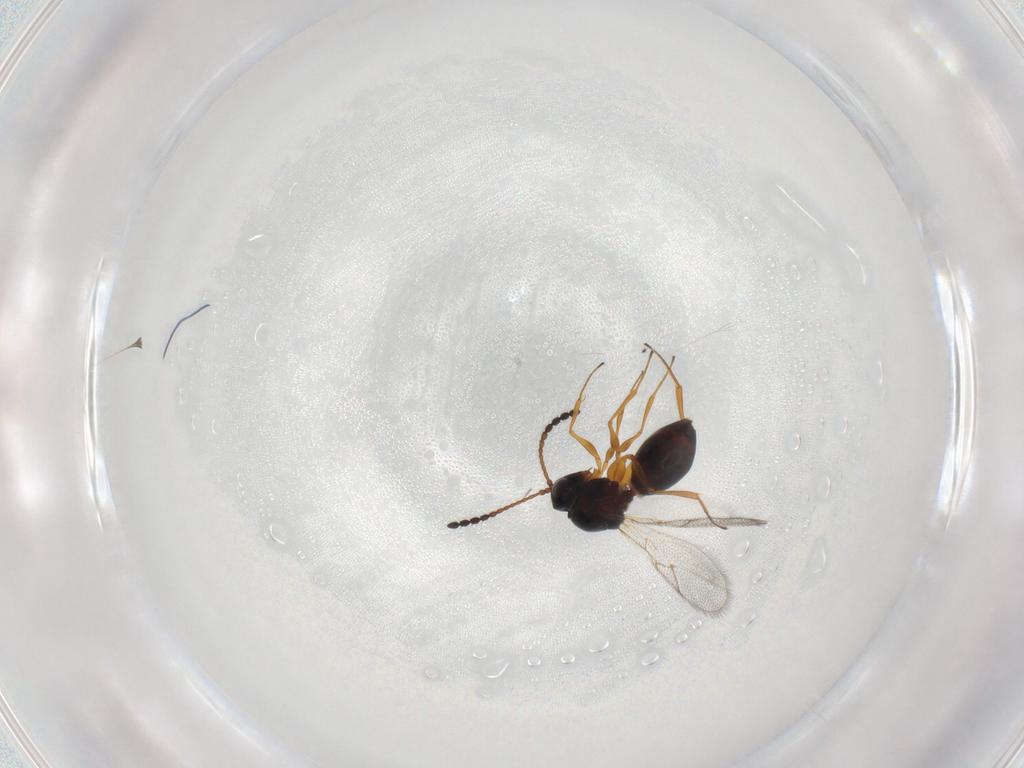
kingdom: Animalia
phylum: Arthropoda
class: Insecta
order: Hymenoptera
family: Figitidae
